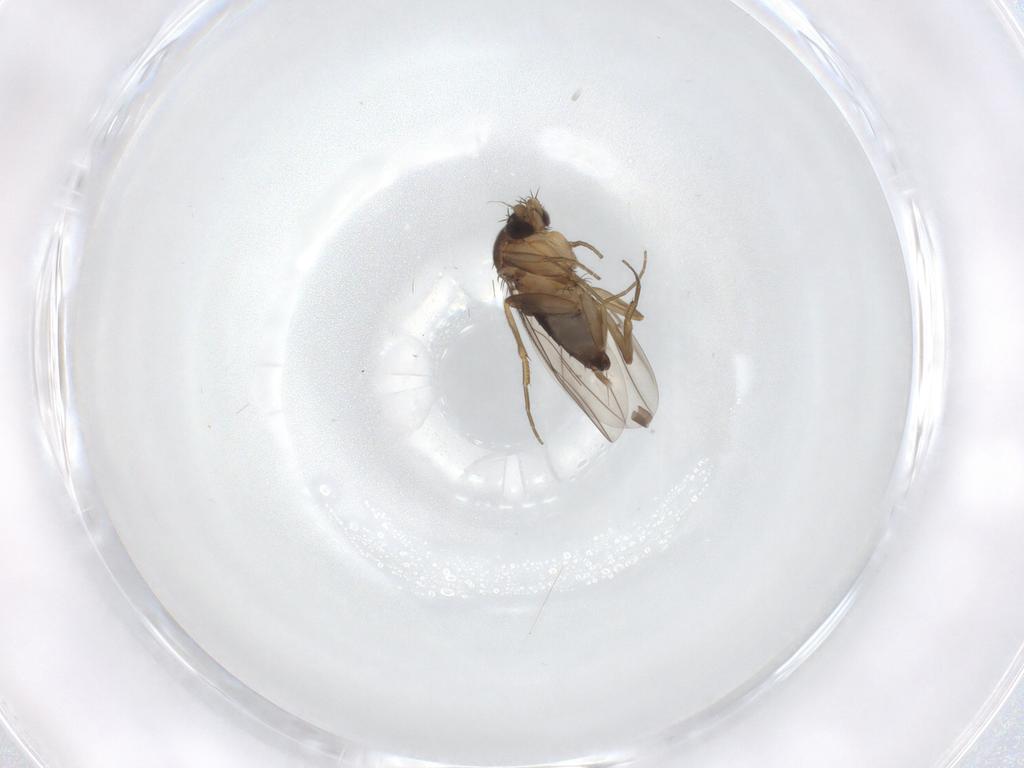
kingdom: Animalia
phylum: Arthropoda
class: Insecta
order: Diptera
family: Phoridae
